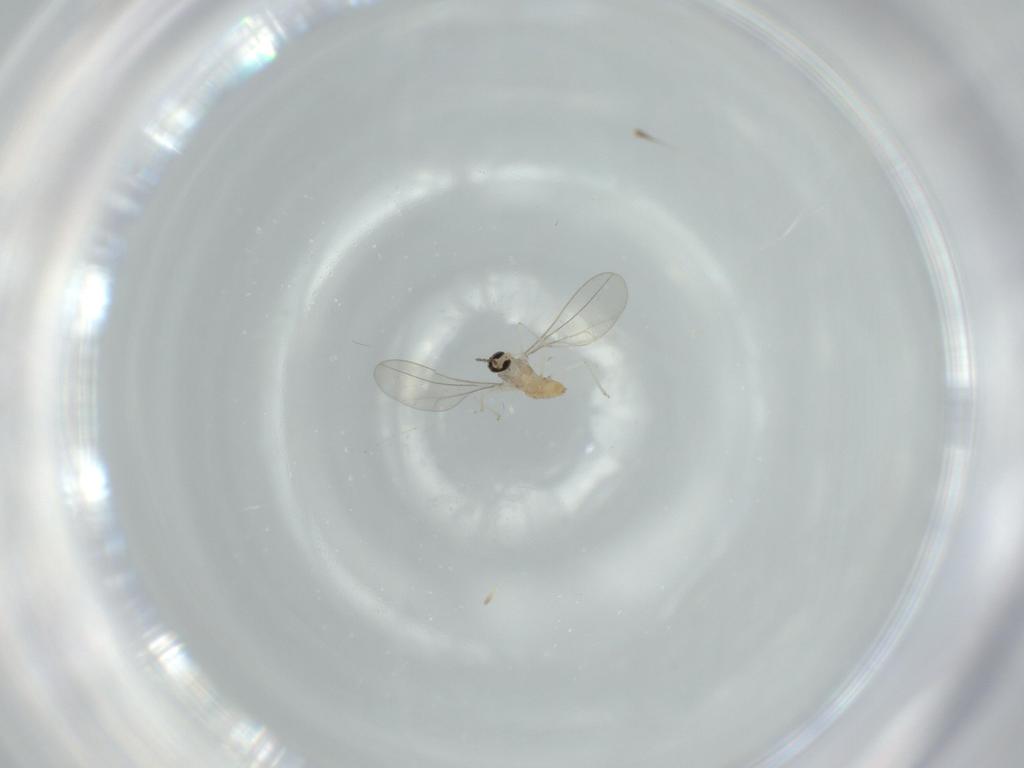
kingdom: Animalia
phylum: Arthropoda
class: Insecta
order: Diptera
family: Cecidomyiidae
